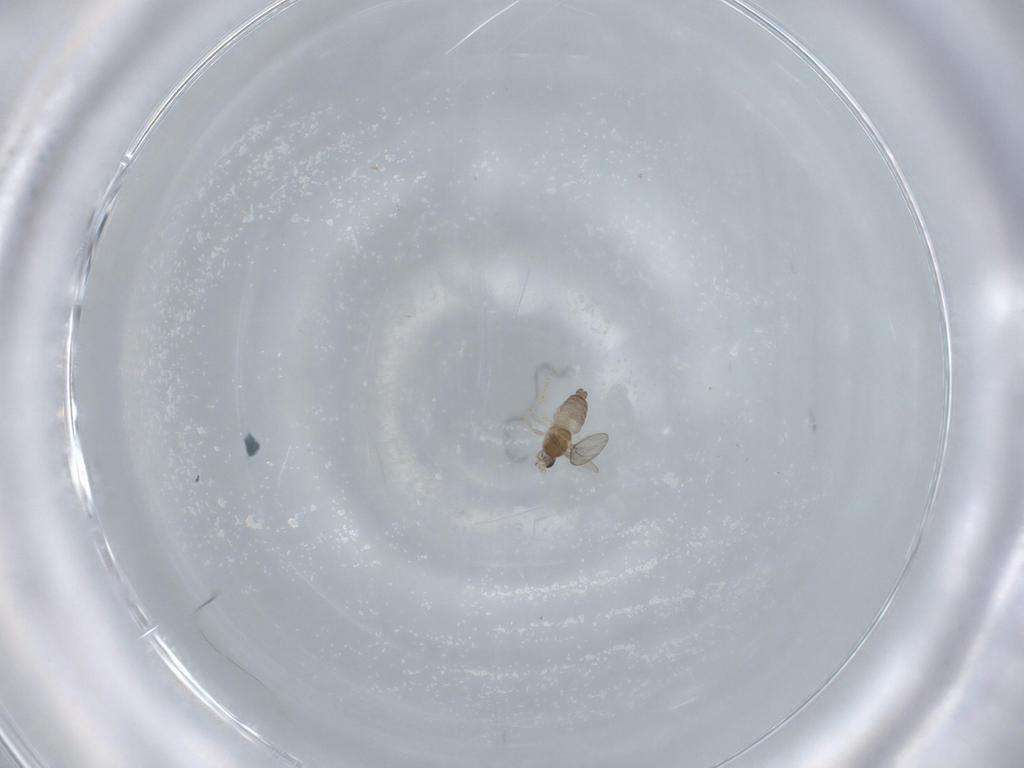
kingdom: Animalia
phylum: Arthropoda
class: Insecta
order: Diptera
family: Cecidomyiidae
